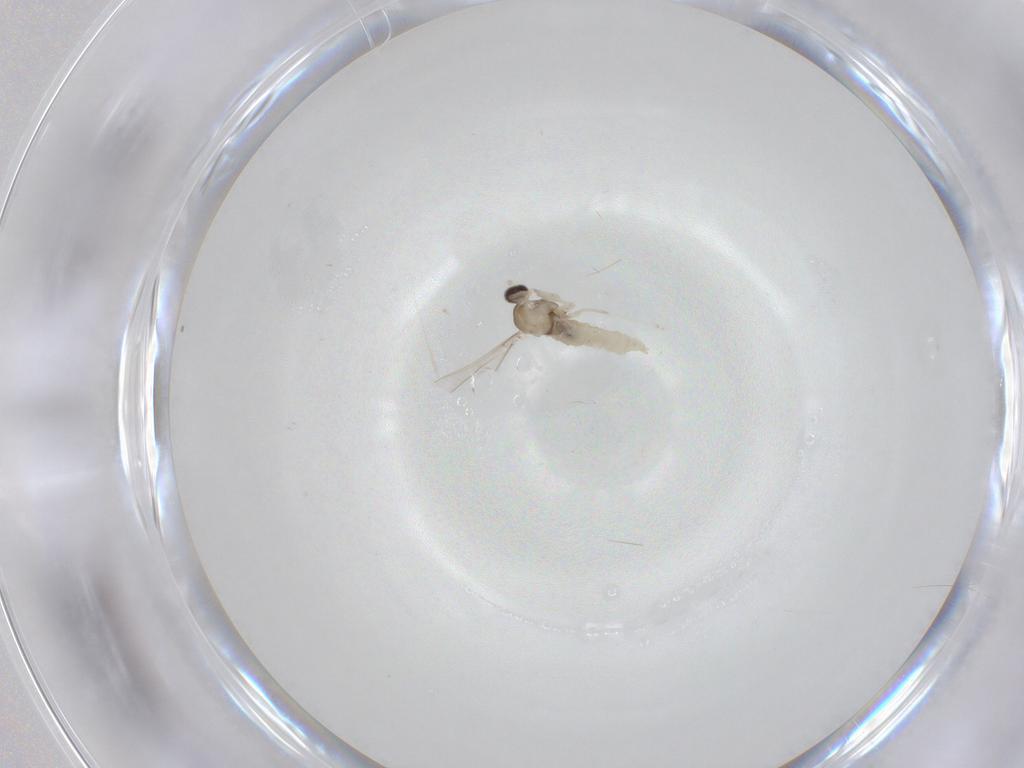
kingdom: Animalia
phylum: Arthropoda
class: Insecta
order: Diptera
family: Cecidomyiidae
